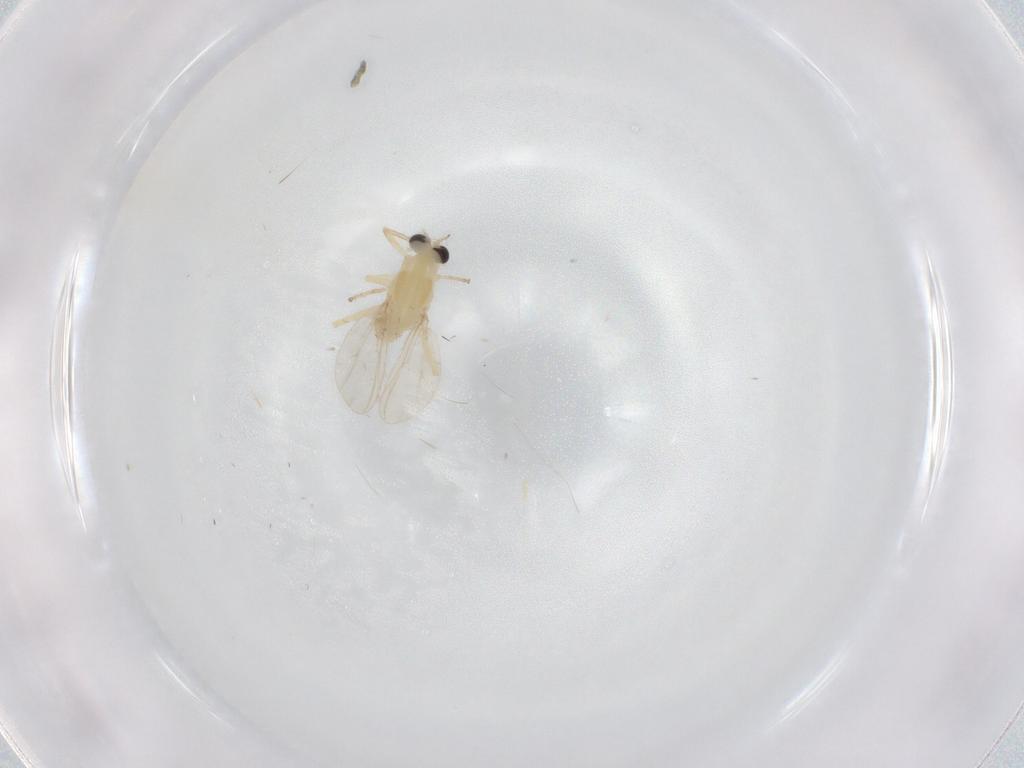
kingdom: Animalia
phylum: Arthropoda
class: Insecta
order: Diptera
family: Chironomidae
